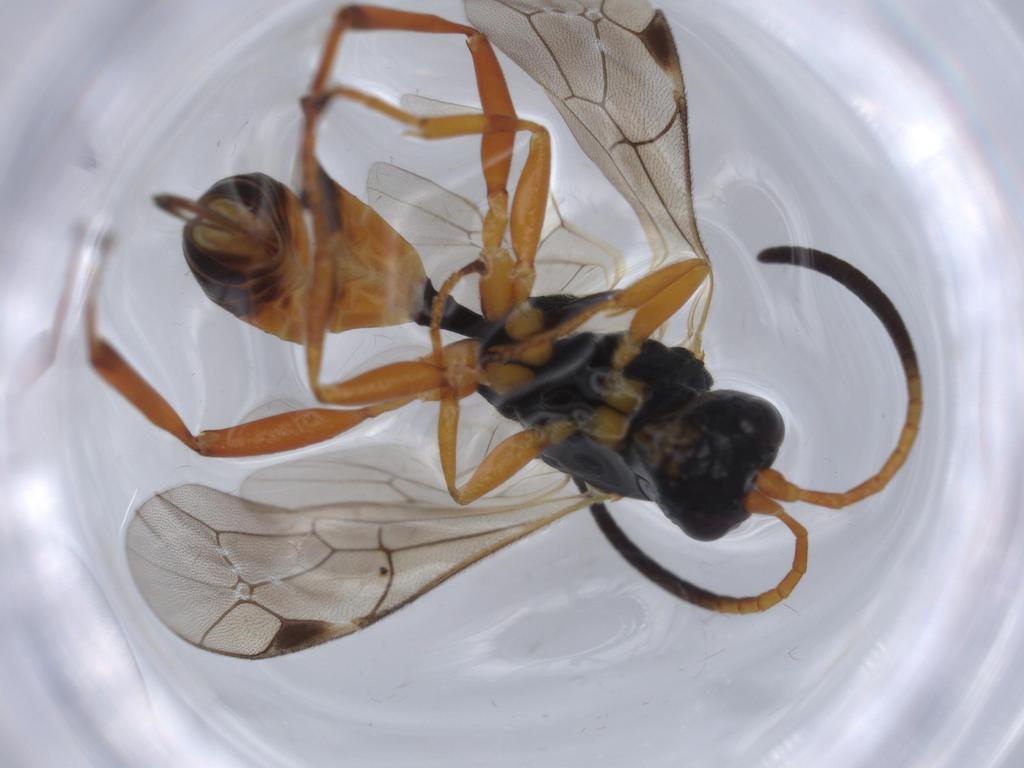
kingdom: Animalia
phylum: Arthropoda
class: Insecta
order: Hymenoptera
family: Ichneumonidae
